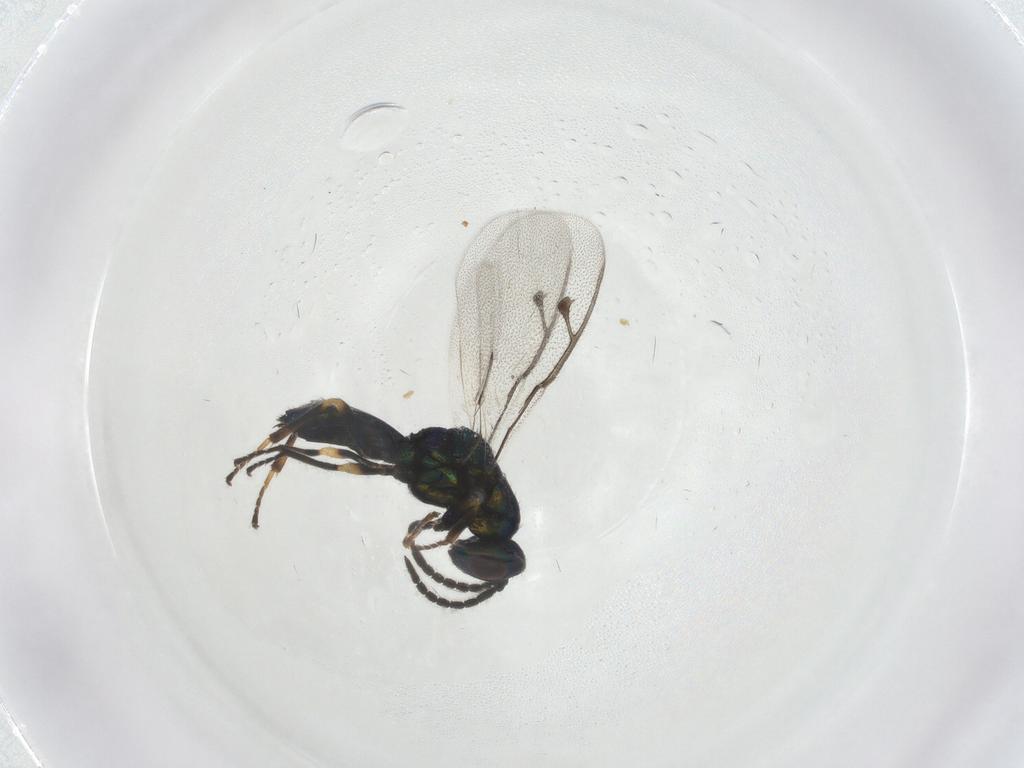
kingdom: Animalia
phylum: Arthropoda
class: Insecta
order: Hymenoptera
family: Pteromalidae
